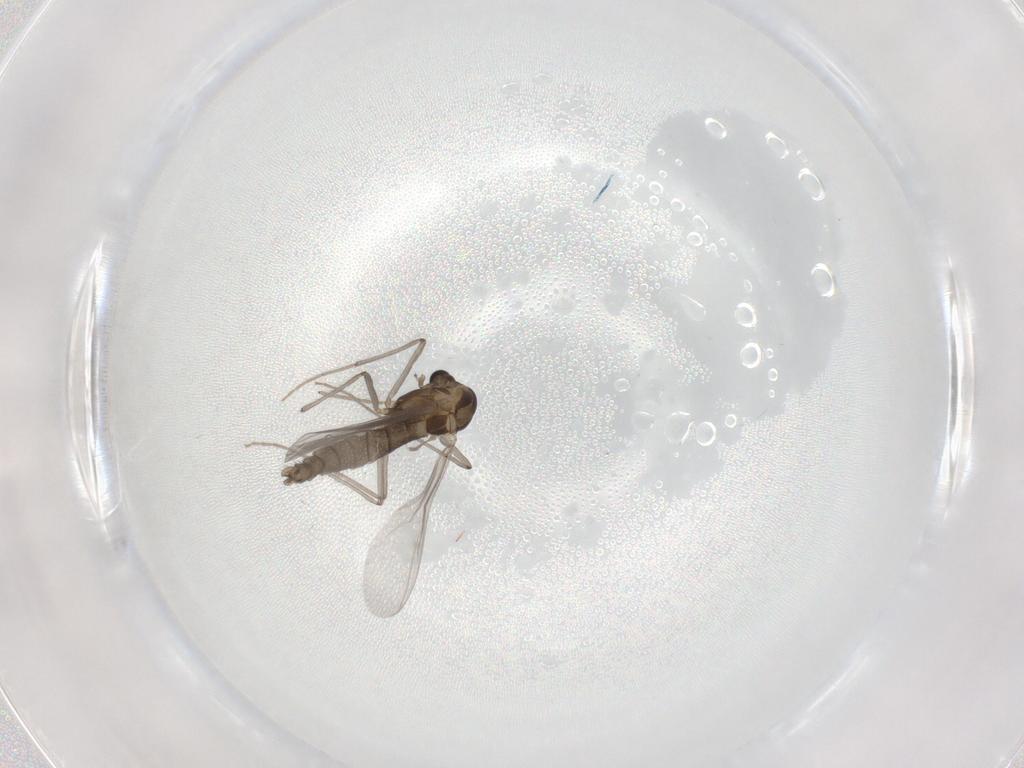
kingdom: Animalia
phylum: Arthropoda
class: Insecta
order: Diptera
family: Chironomidae
